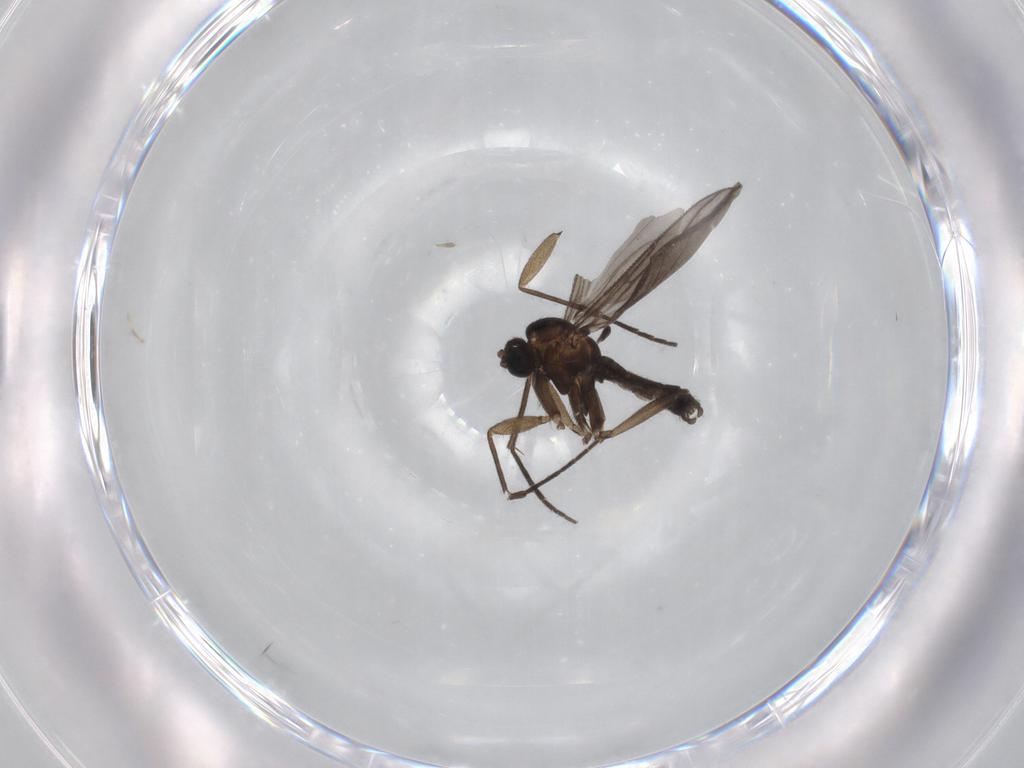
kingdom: Animalia
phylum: Arthropoda
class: Insecta
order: Diptera
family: Sciaridae
